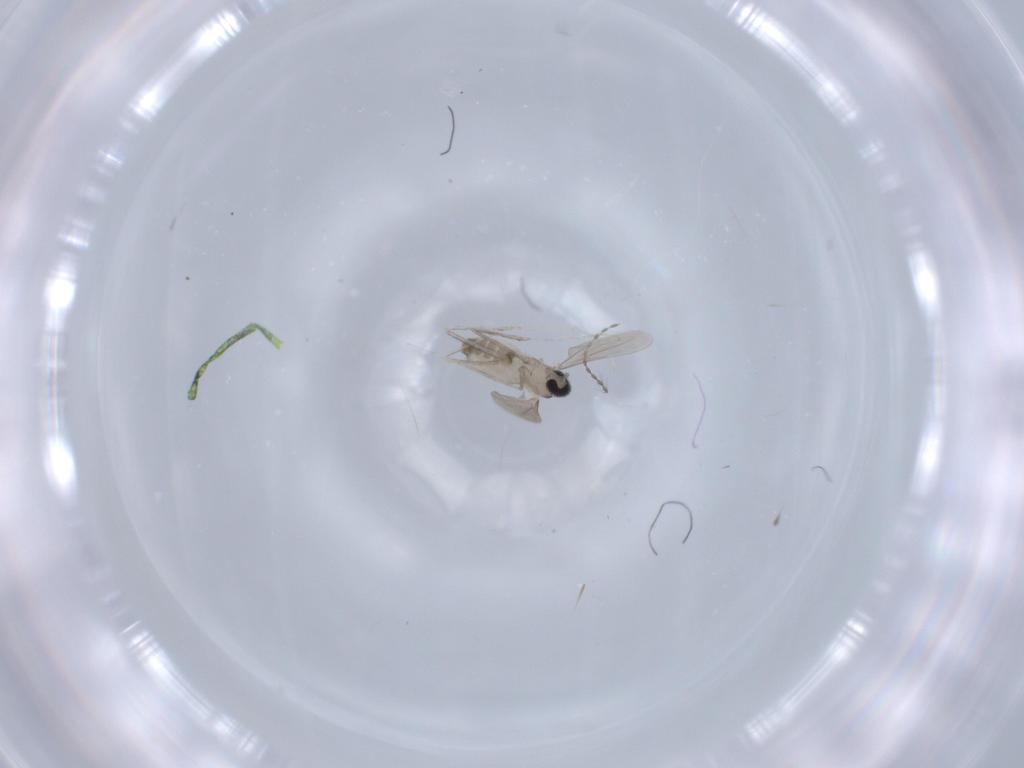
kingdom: Animalia
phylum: Arthropoda
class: Insecta
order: Diptera
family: Cecidomyiidae
